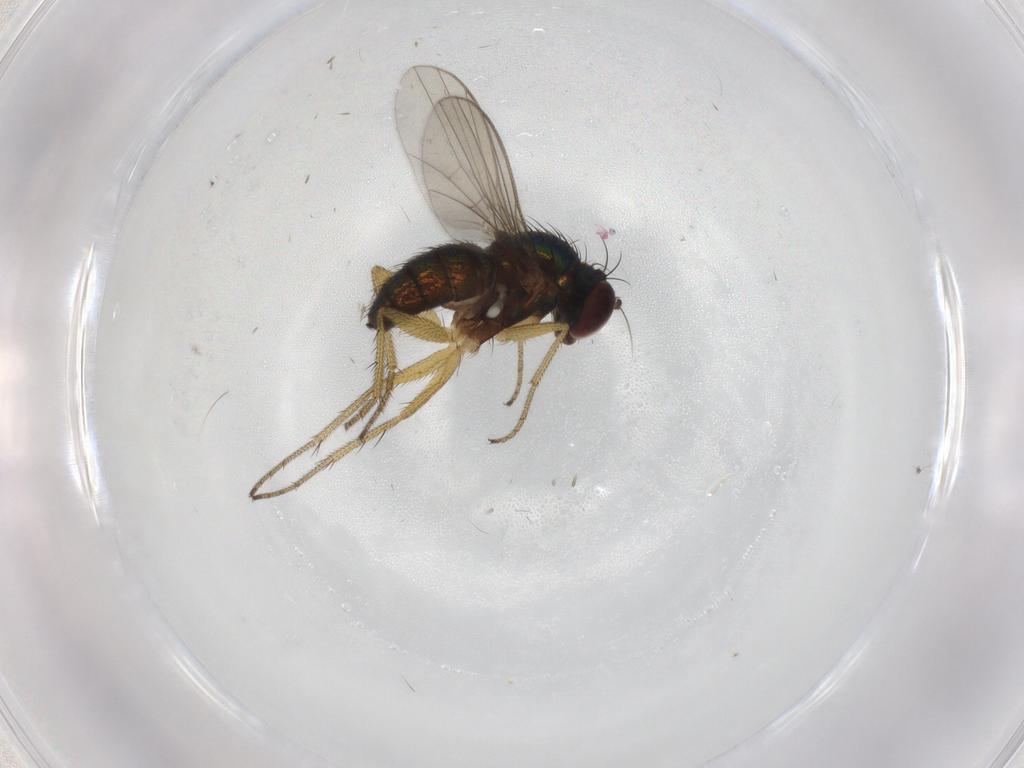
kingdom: Animalia
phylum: Arthropoda
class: Insecta
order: Diptera
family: Dolichopodidae
